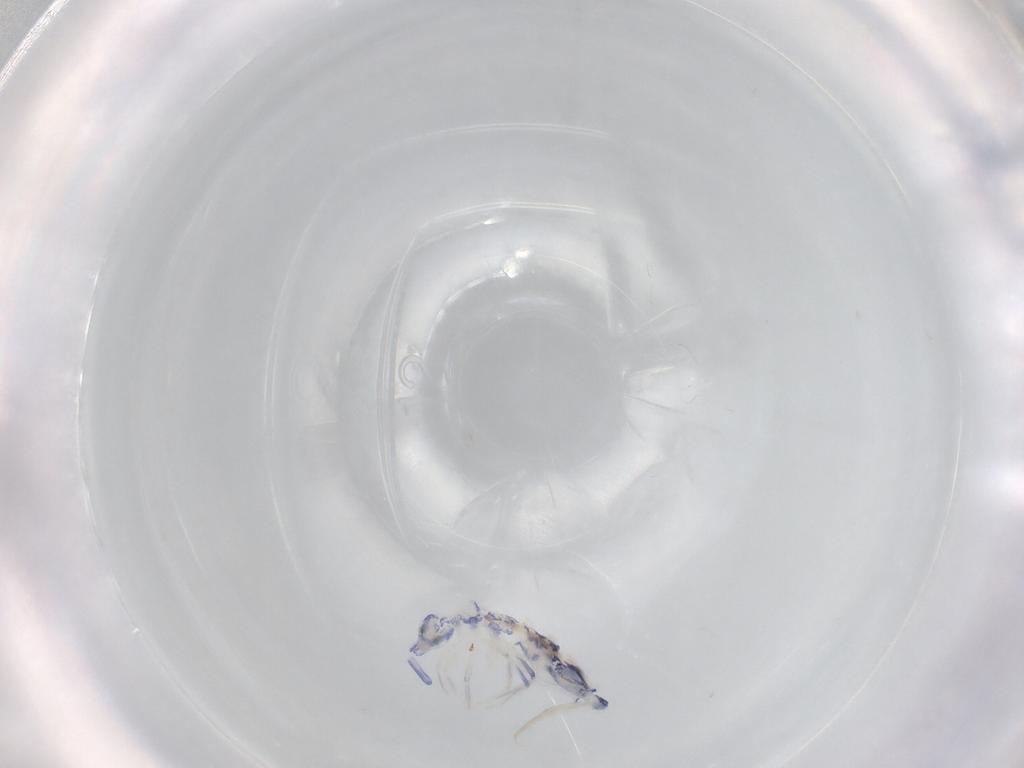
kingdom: Animalia
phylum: Arthropoda
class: Collembola
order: Entomobryomorpha
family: Entomobryidae
